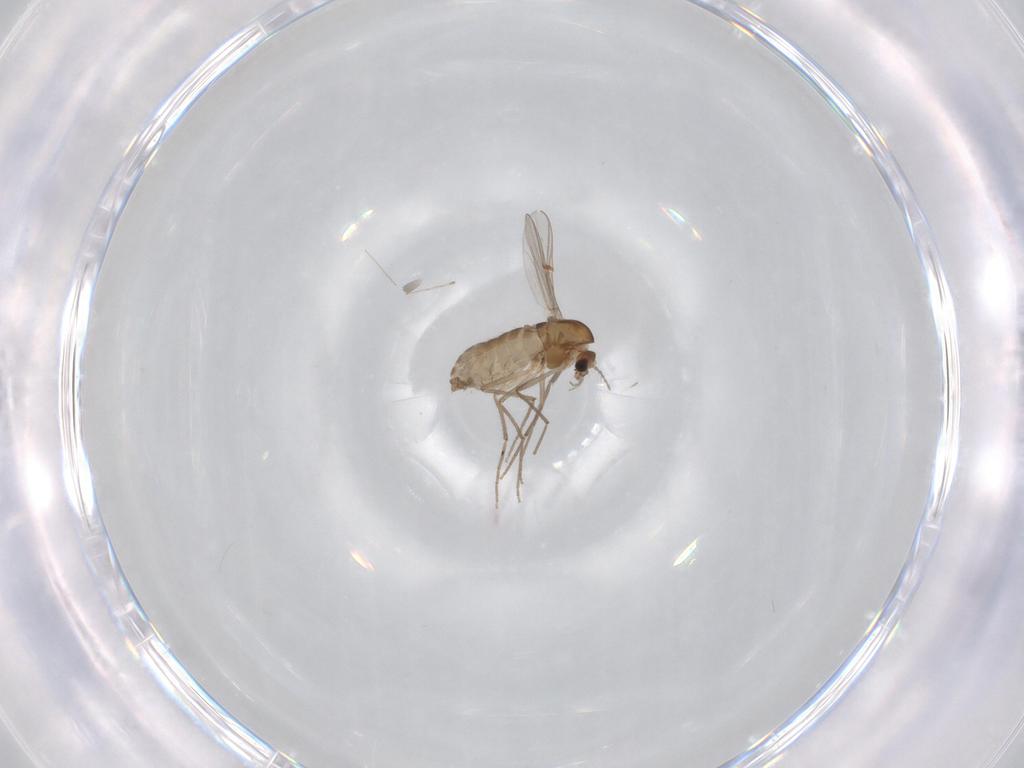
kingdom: Animalia
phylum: Arthropoda
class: Insecta
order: Diptera
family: Chironomidae
